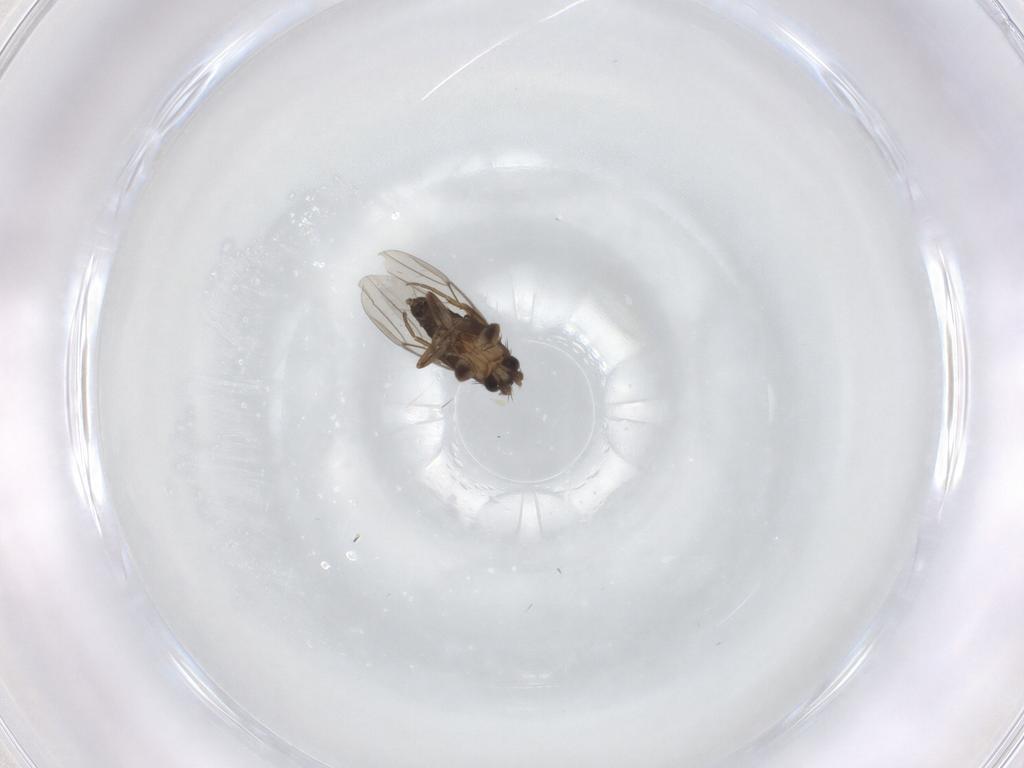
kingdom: Animalia
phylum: Arthropoda
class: Insecta
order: Diptera
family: Phoridae
